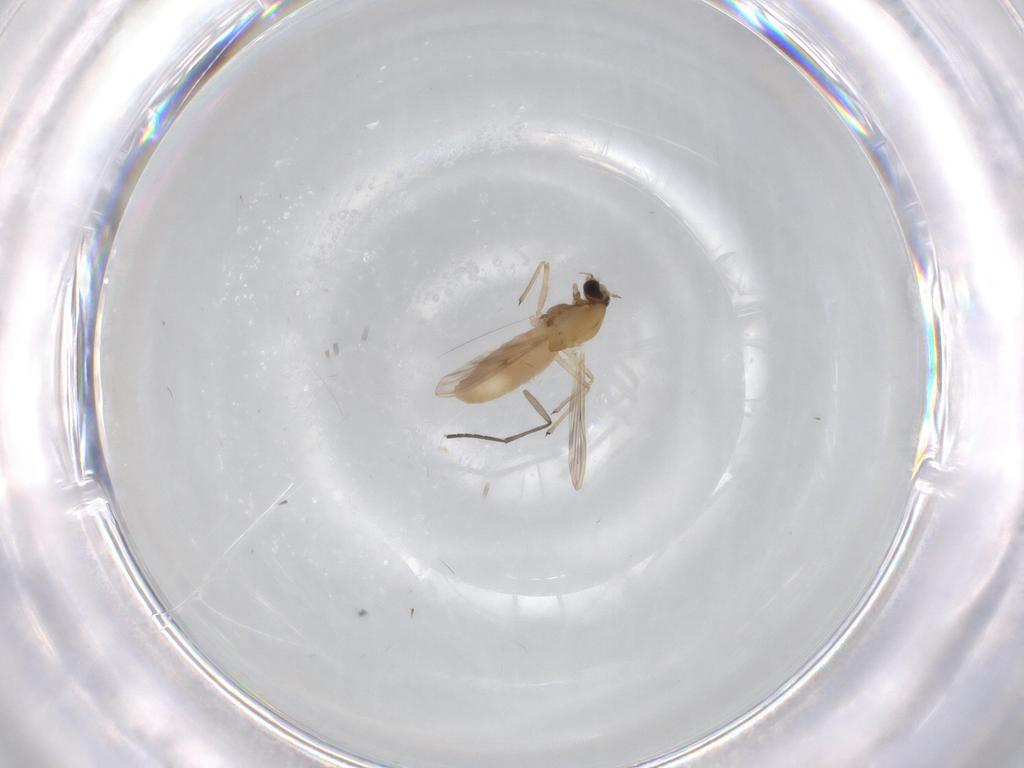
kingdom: Animalia
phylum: Arthropoda
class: Insecta
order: Diptera
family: Chironomidae
